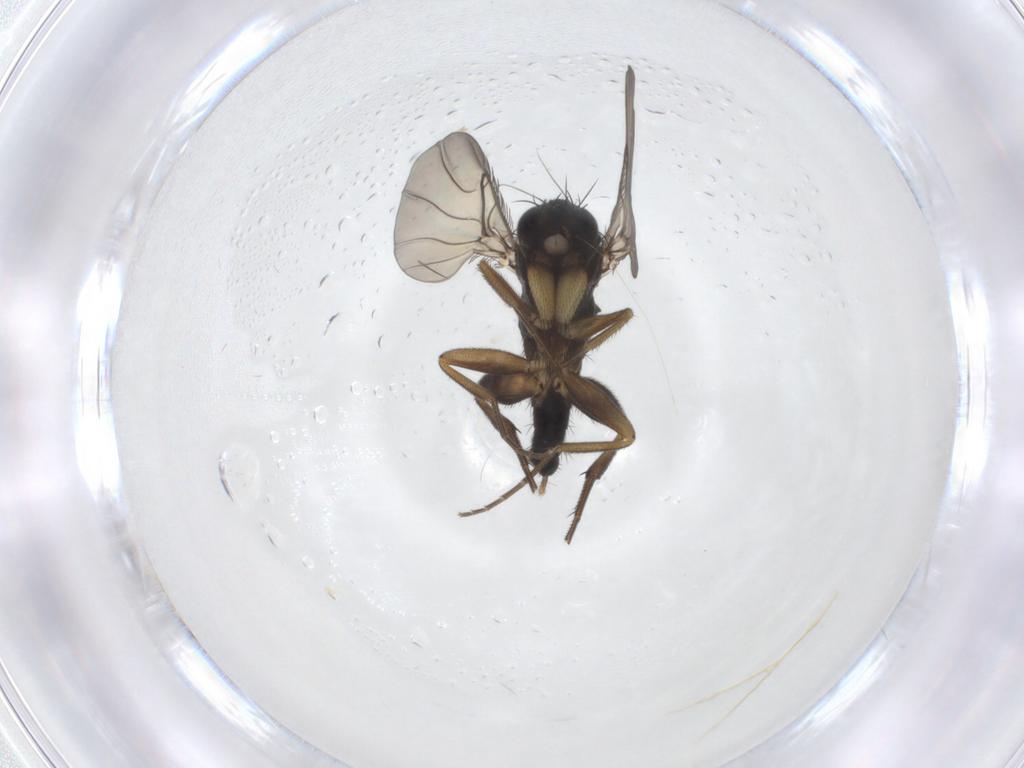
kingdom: Animalia
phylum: Arthropoda
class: Insecta
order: Diptera
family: Phoridae
